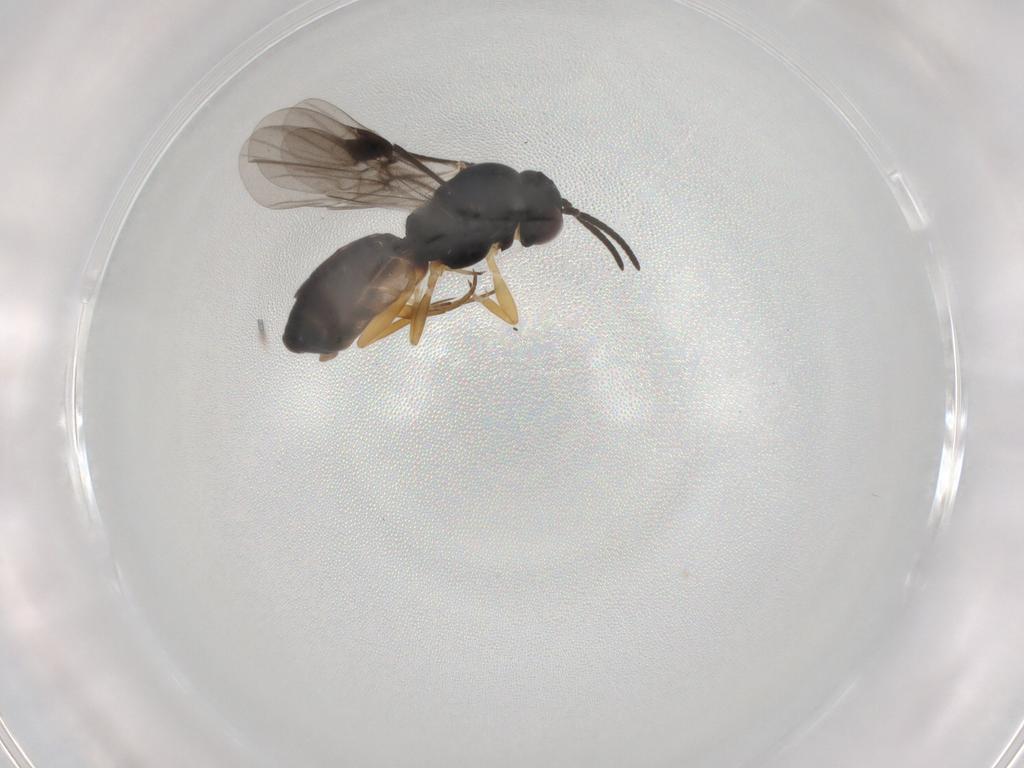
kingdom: Animalia
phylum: Arthropoda
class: Insecta
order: Hymenoptera
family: Braconidae
